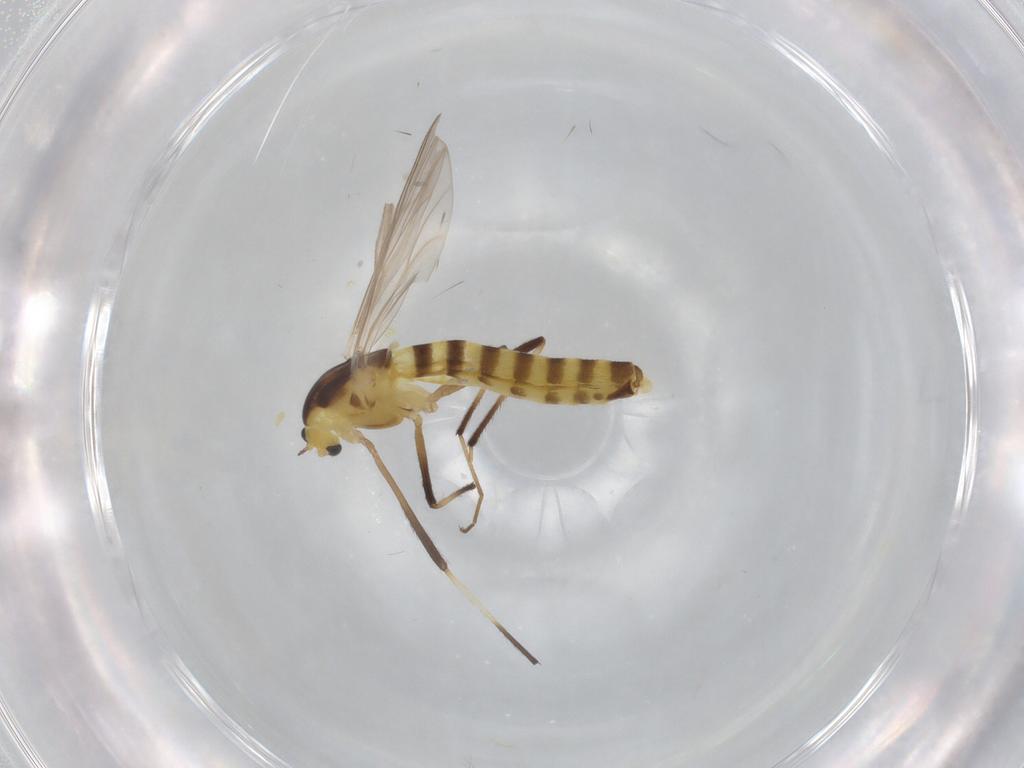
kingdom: Animalia
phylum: Arthropoda
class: Insecta
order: Diptera
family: Chironomidae
